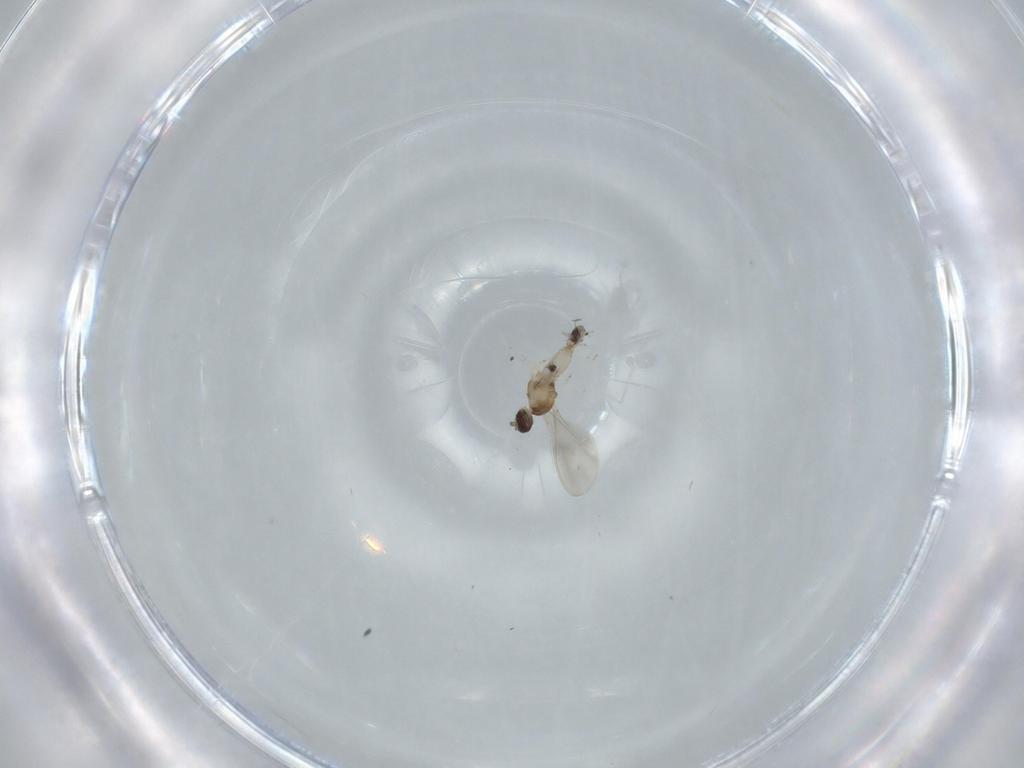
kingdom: Animalia
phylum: Arthropoda
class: Insecta
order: Diptera
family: Cecidomyiidae
